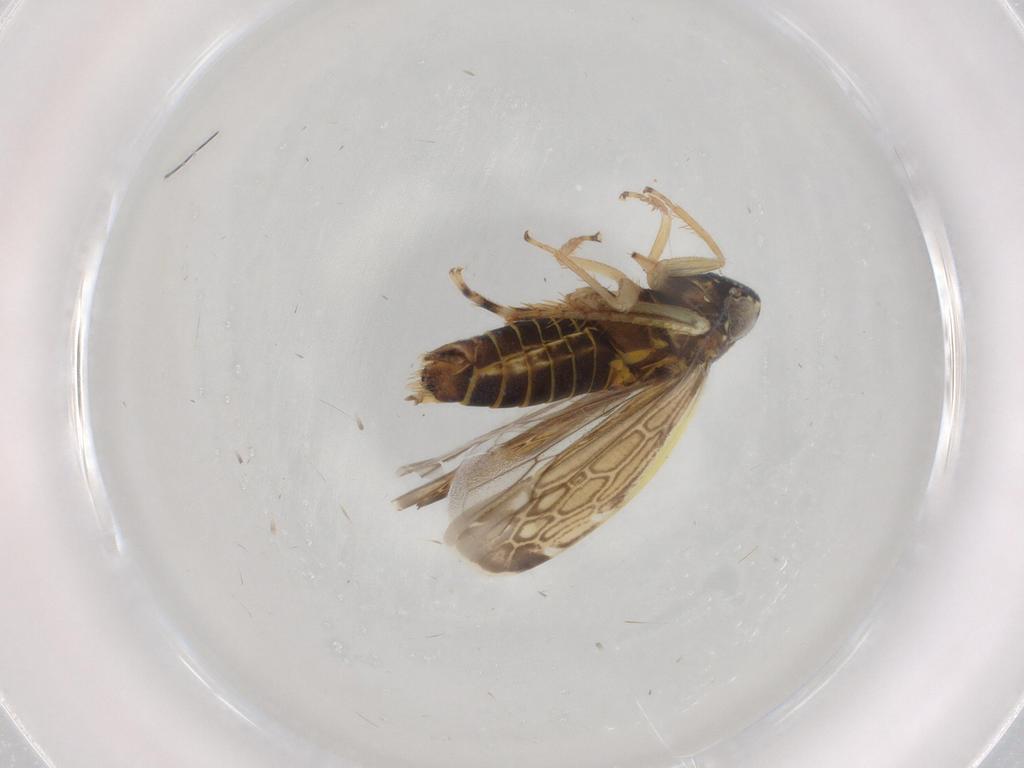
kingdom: Animalia
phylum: Arthropoda
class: Insecta
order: Hemiptera
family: Cicadellidae
